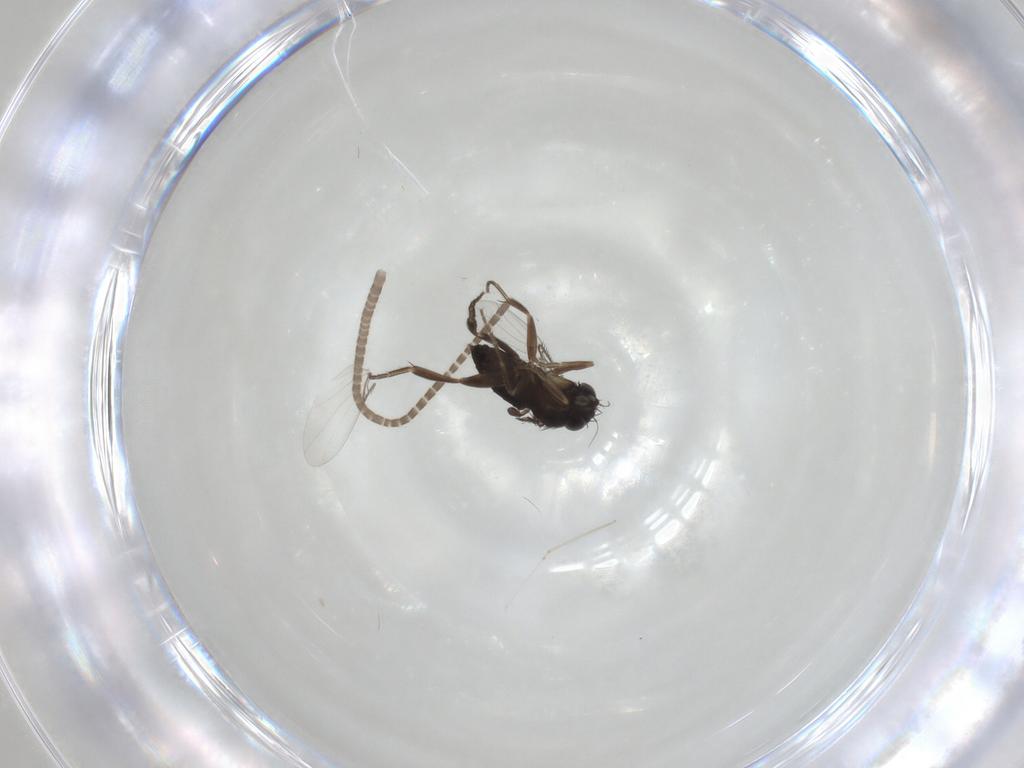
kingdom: Animalia
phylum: Arthropoda
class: Insecta
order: Diptera
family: Phoridae
